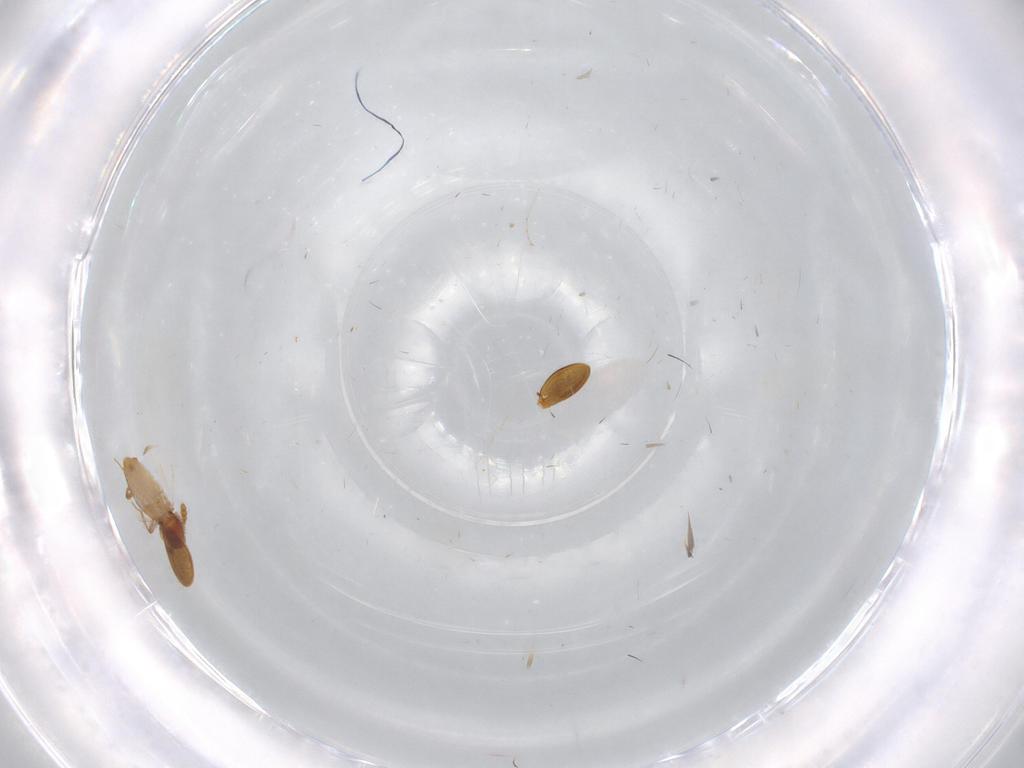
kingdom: Animalia
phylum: Arthropoda
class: Insecta
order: Coleoptera
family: Staphylinidae
